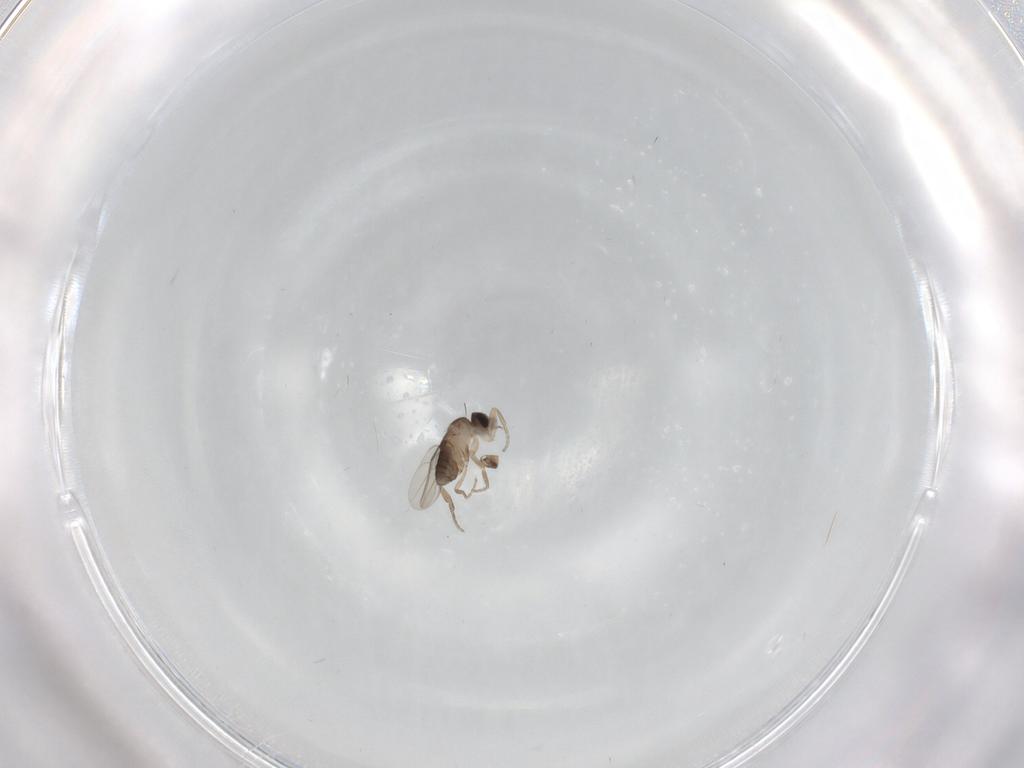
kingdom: Animalia
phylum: Arthropoda
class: Insecta
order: Diptera
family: Phoridae
